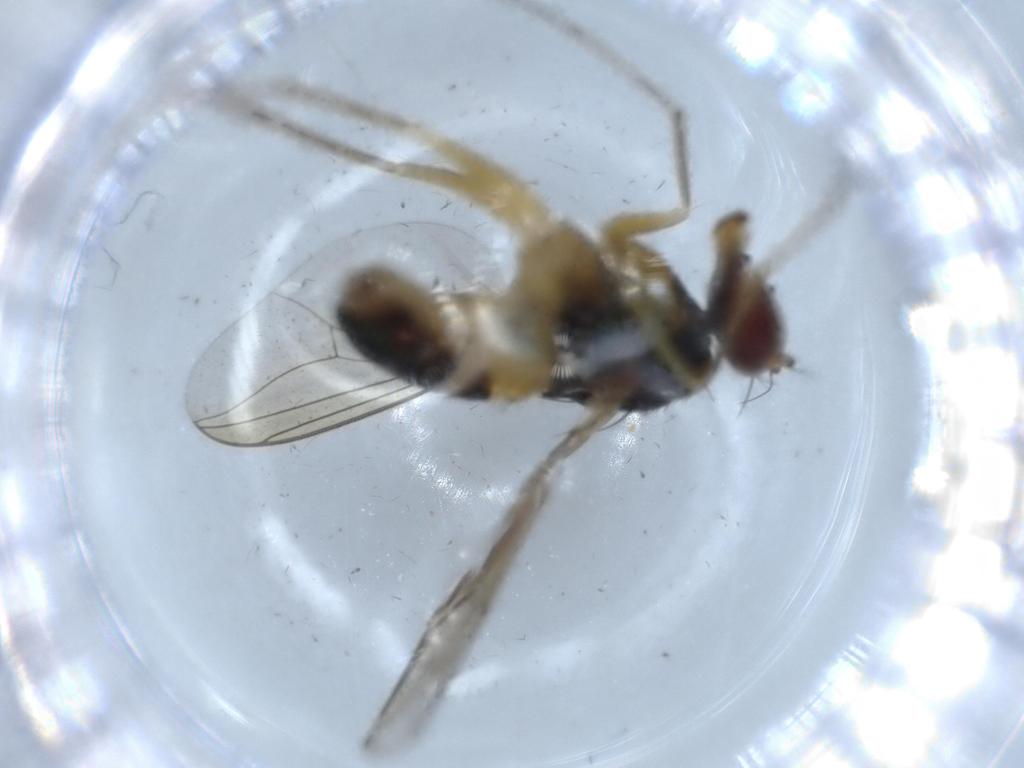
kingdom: Animalia
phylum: Arthropoda
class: Insecta
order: Diptera
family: Dolichopodidae
